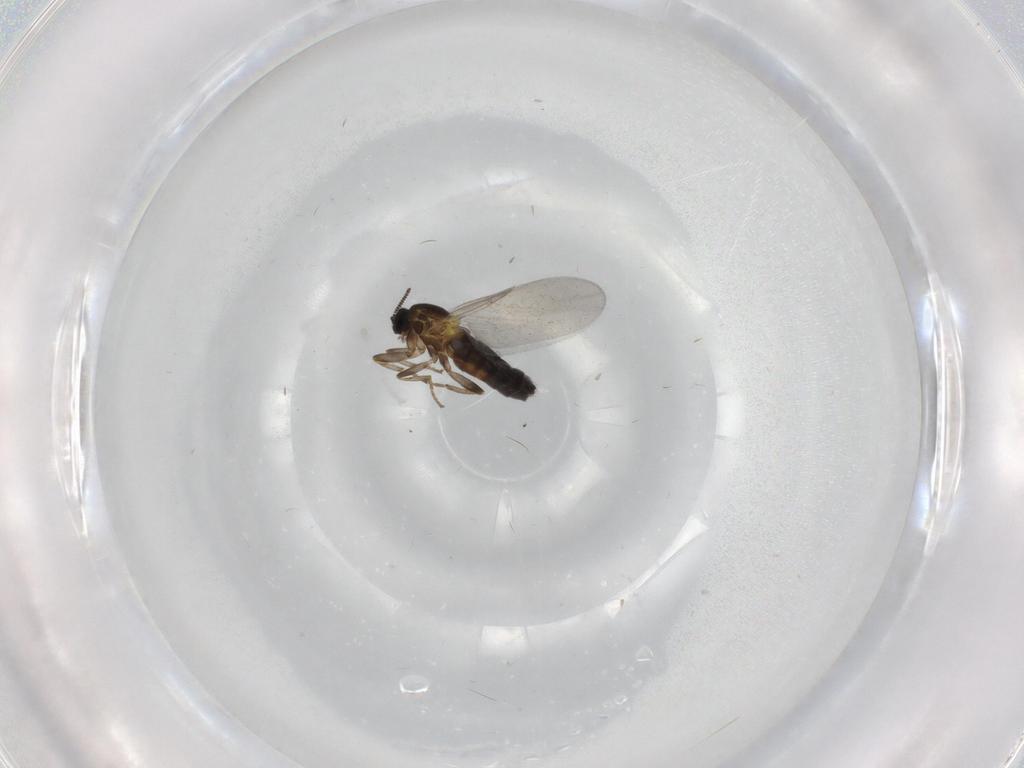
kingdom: Animalia
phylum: Arthropoda
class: Insecta
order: Diptera
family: Scatopsidae
